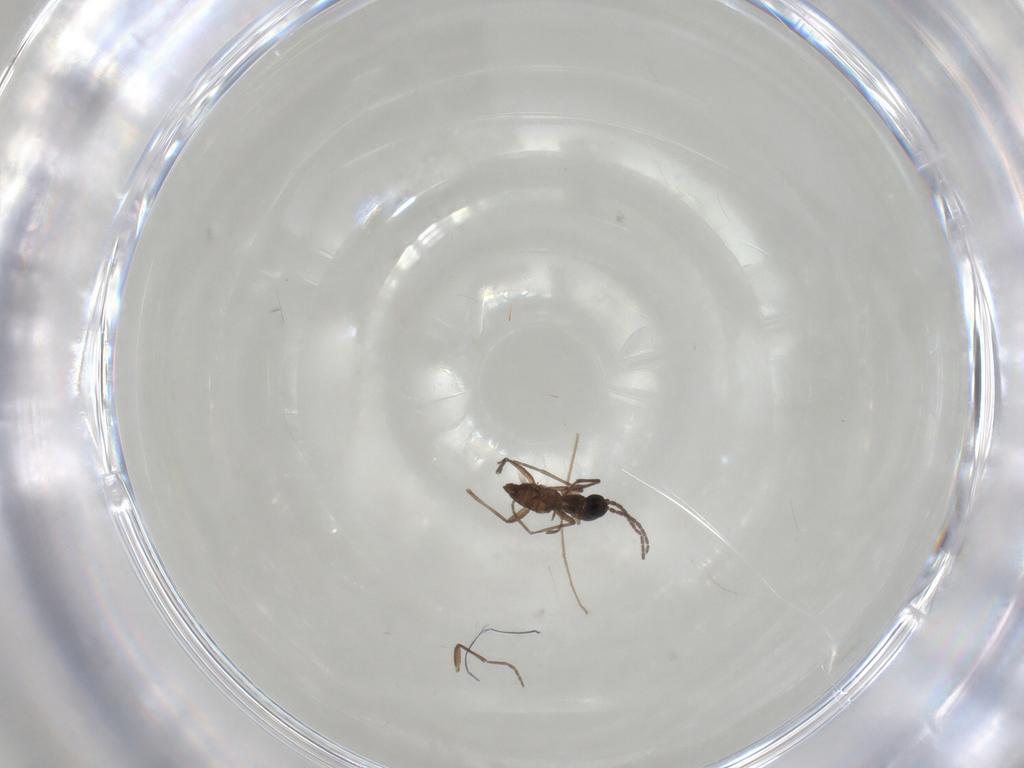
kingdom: Animalia
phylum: Arthropoda
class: Insecta
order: Diptera
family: Sciaridae
